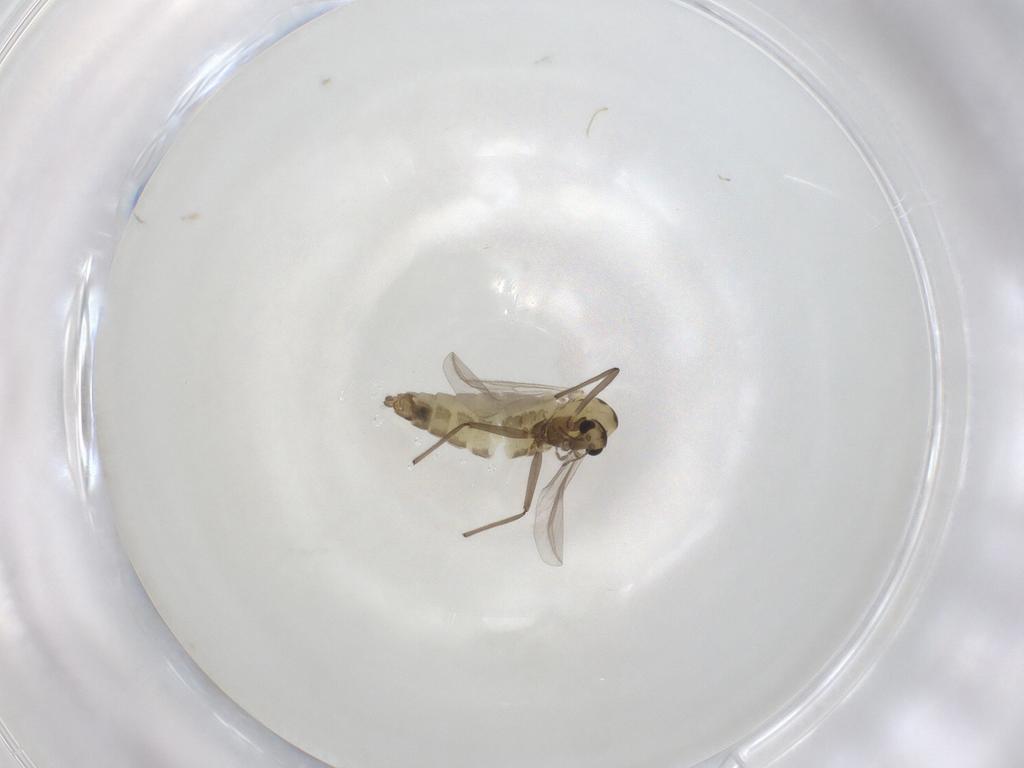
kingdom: Animalia
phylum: Arthropoda
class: Insecta
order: Diptera
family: Chironomidae
